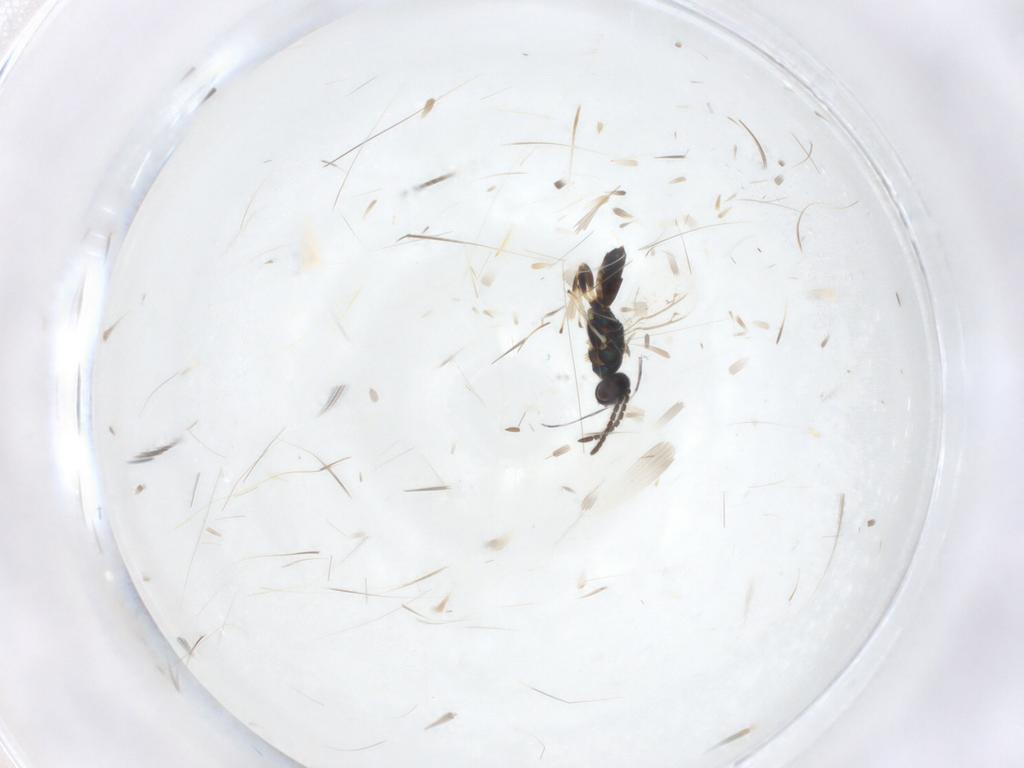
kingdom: Animalia
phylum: Arthropoda
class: Insecta
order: Hymenoptera
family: Eupelmidae
